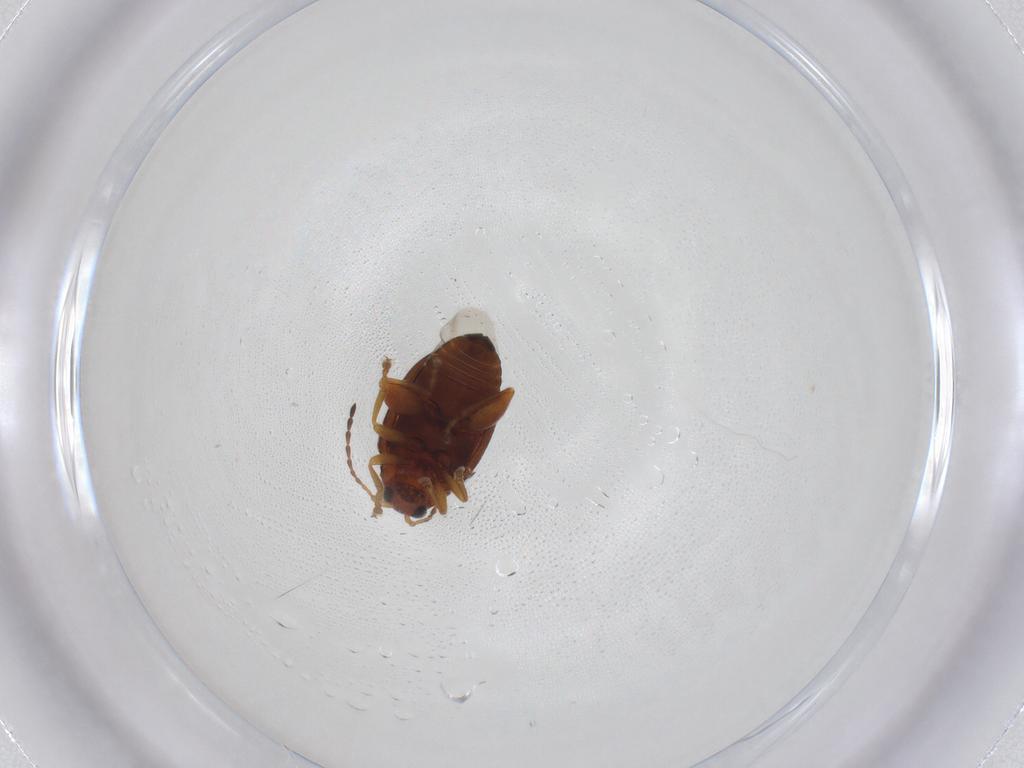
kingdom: Animalia
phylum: Arthropoda
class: Insecta
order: Coleoptera
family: Chrysomelidae
